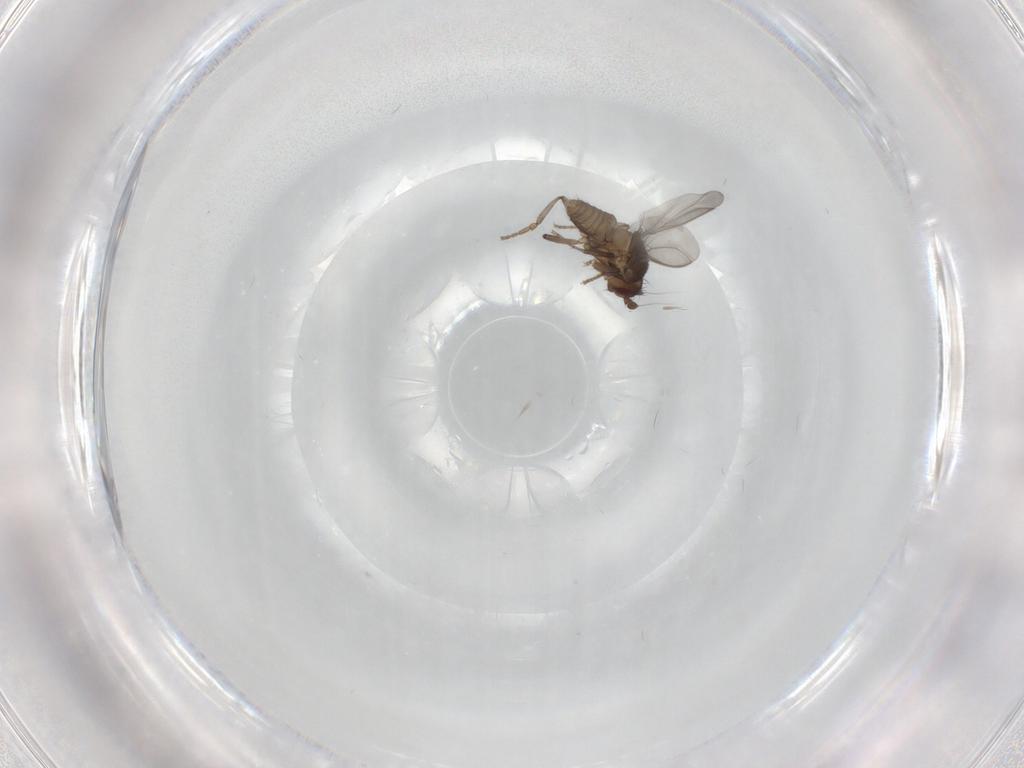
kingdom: Animalia
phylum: Arthropoda
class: Insecta
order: Diptera
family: Sphaeroceridae
